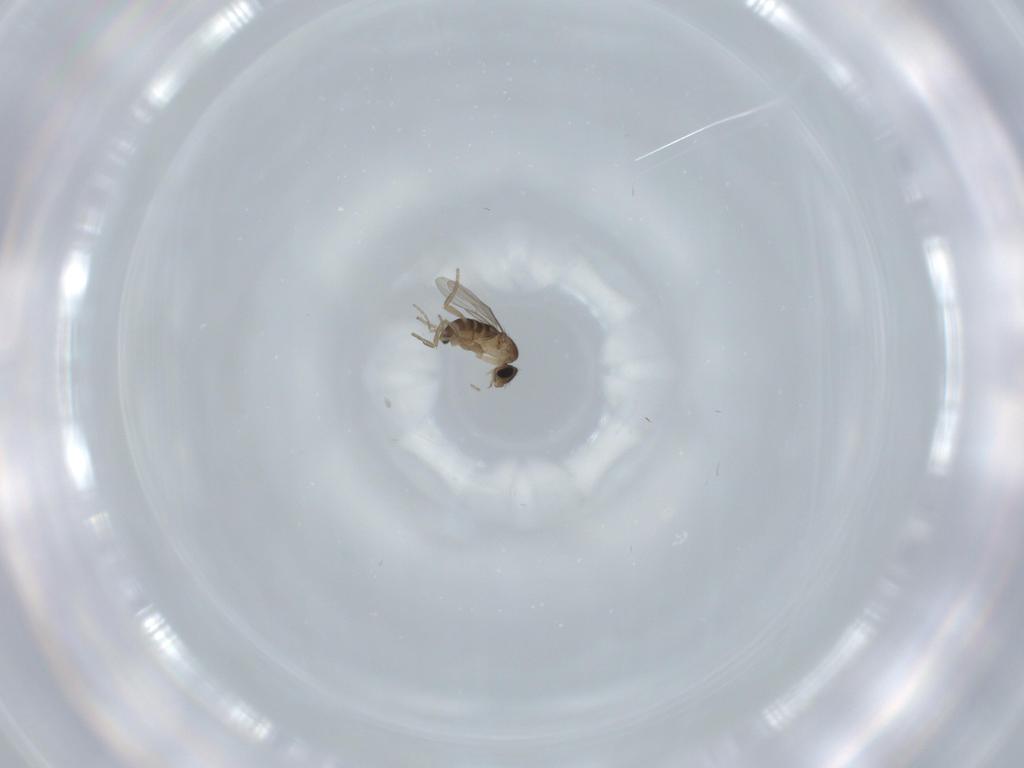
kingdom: Animalia
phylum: Arthropoda
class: Insecta
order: Diptera
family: Phoridae
